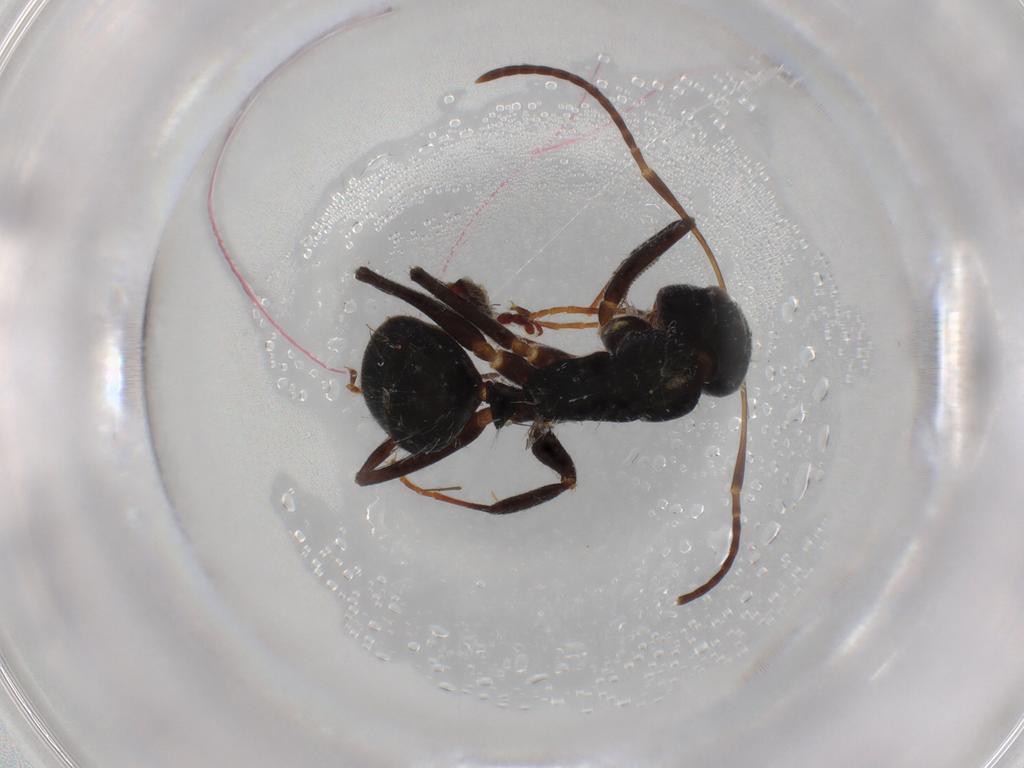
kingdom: Animalia
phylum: Arthropoda
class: Insecta
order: Hymenoptera
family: Formicidae
